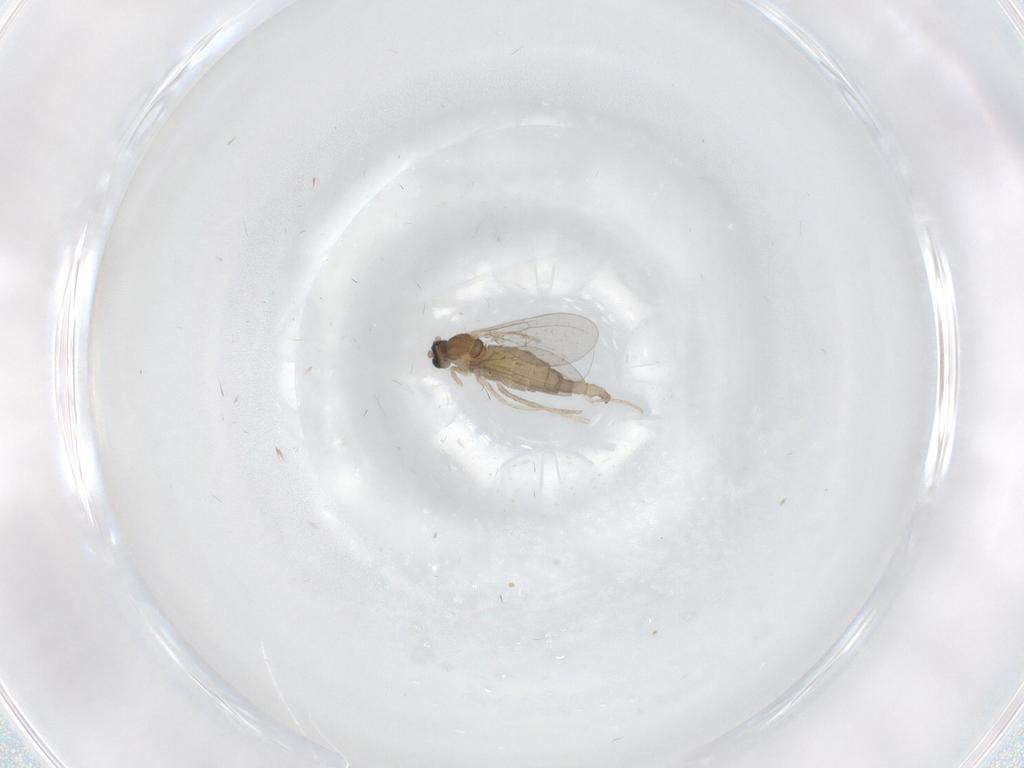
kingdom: Animalia
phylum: Arthropoda
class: Insecta
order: Diptera
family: Cecidomyiidae
